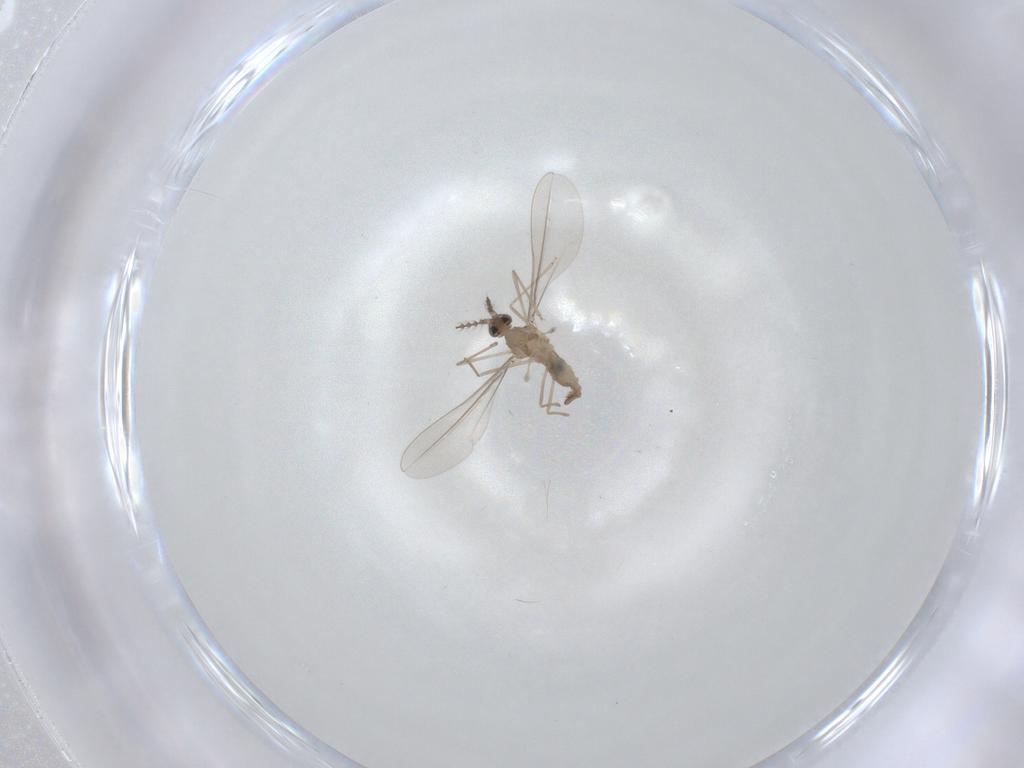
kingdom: Animalia
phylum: Arthropoda
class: Insecta
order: Diptera
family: Ceratopogonidae
